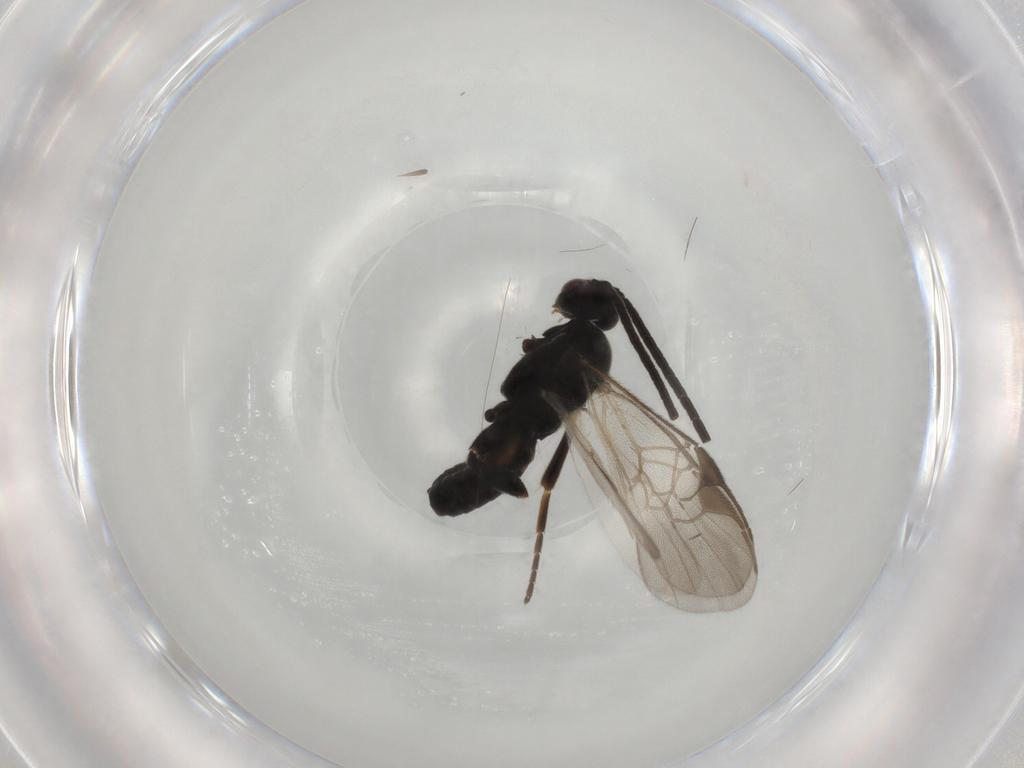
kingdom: Animalia
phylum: Arthropoda
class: Insecta
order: Hymenoptera
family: Braconidae
